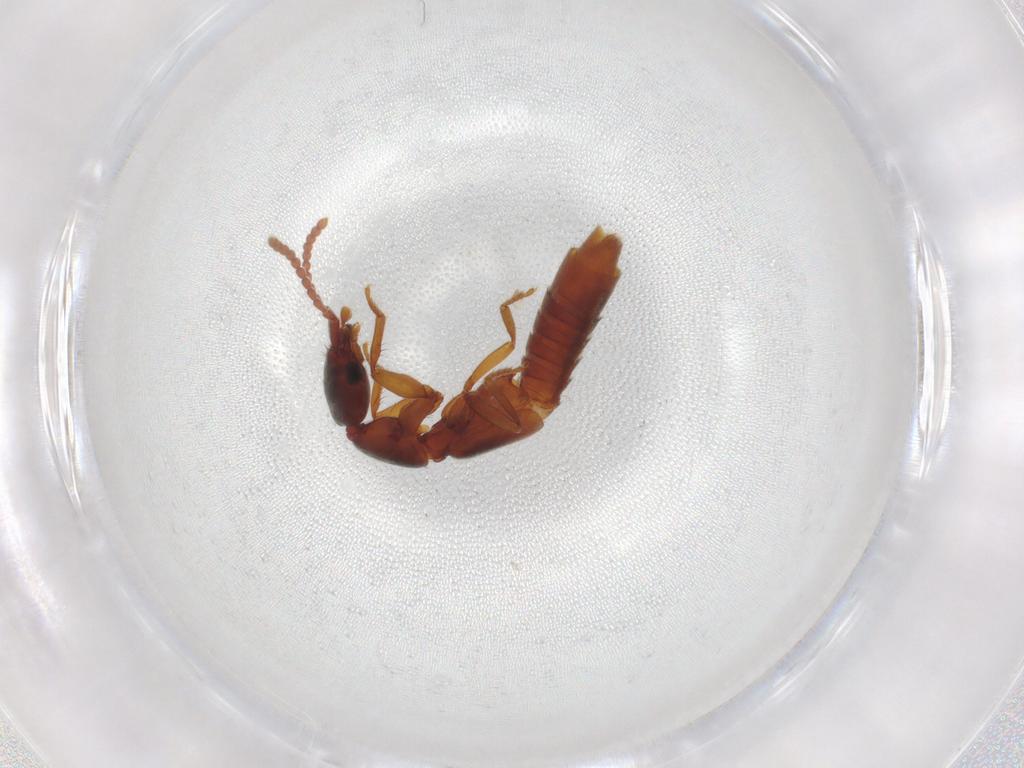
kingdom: Animalia
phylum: Arthropoda
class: Insecta
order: Coleoptera
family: Staphylinidae
